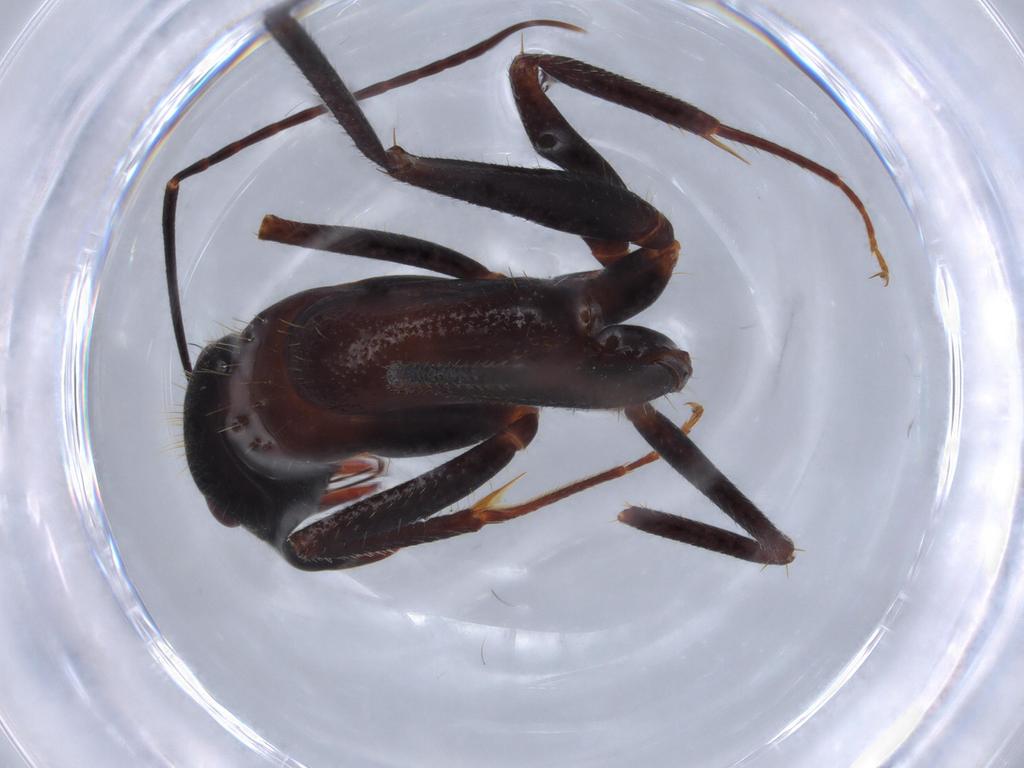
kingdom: Animalia
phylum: Arthropoda
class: Insecta
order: Hymenoptera
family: Formicidae
